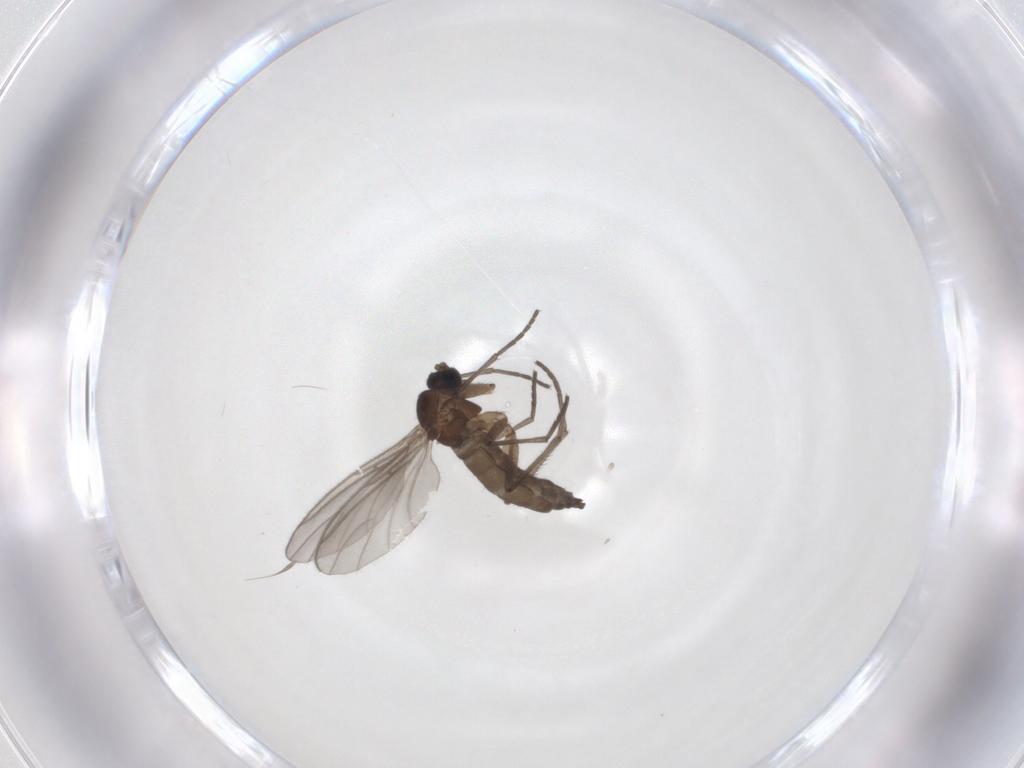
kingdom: Animalia
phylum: Arthropoda
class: Insecta
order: Diptera
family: Sciaridae
